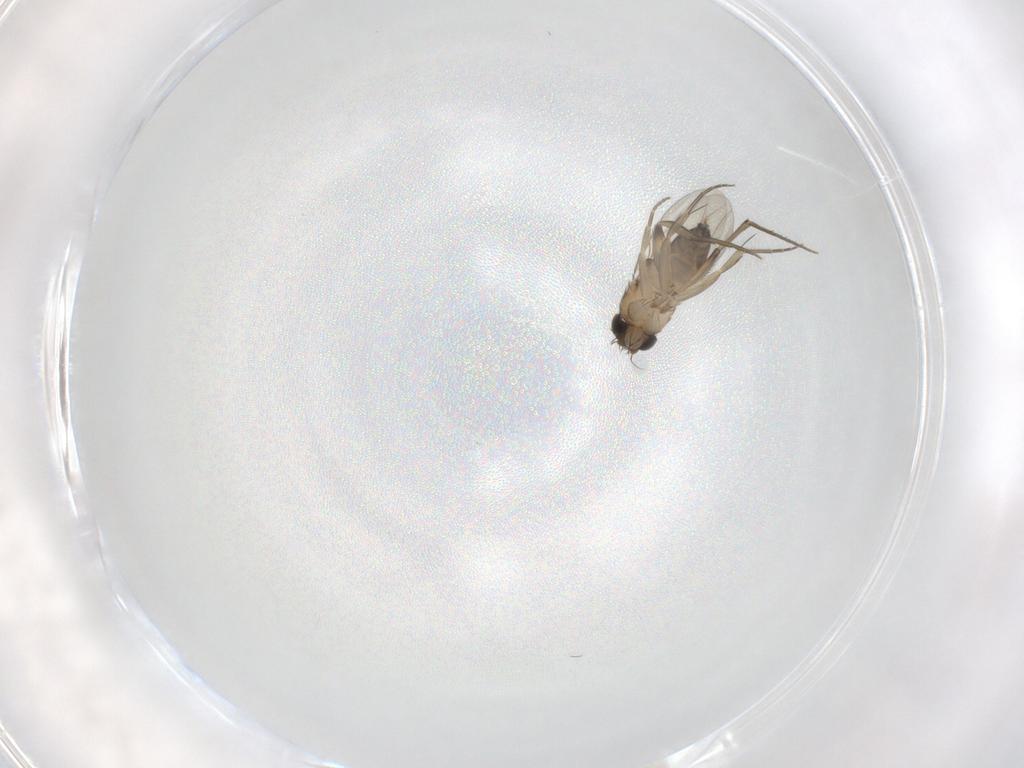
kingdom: Animalia
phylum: Arthropoda
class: Insecta
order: Diptera
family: Phoridae
